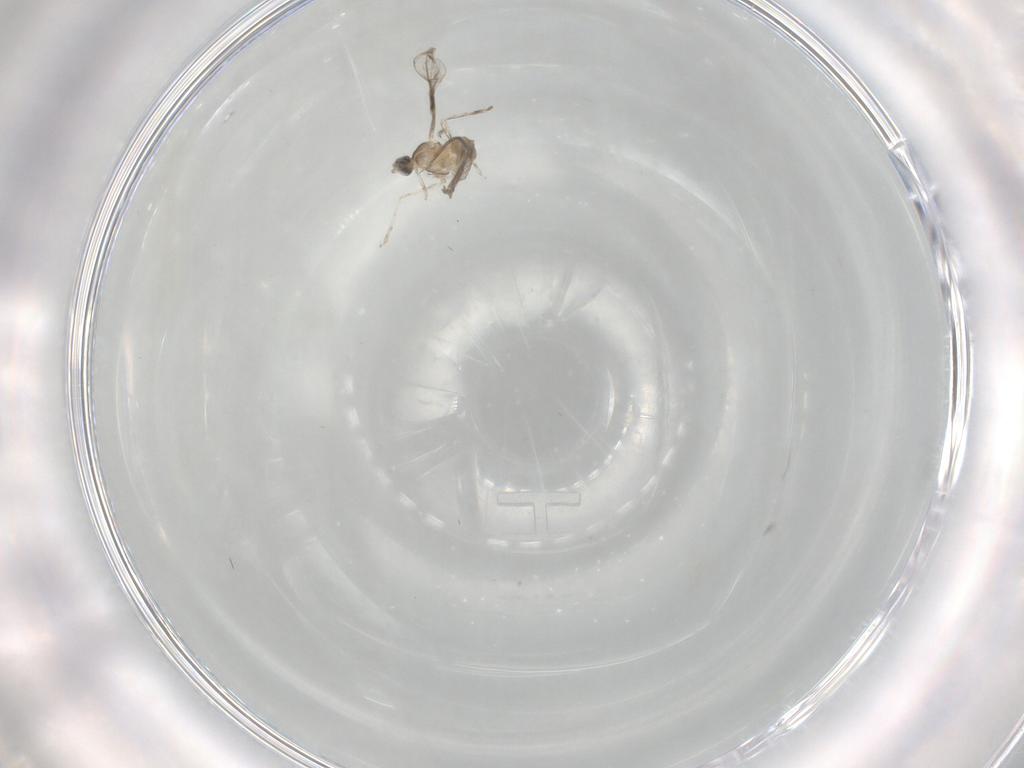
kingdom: Animalia
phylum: Arthropoda
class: Insecta
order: Diptera
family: Cecidomyiidae
